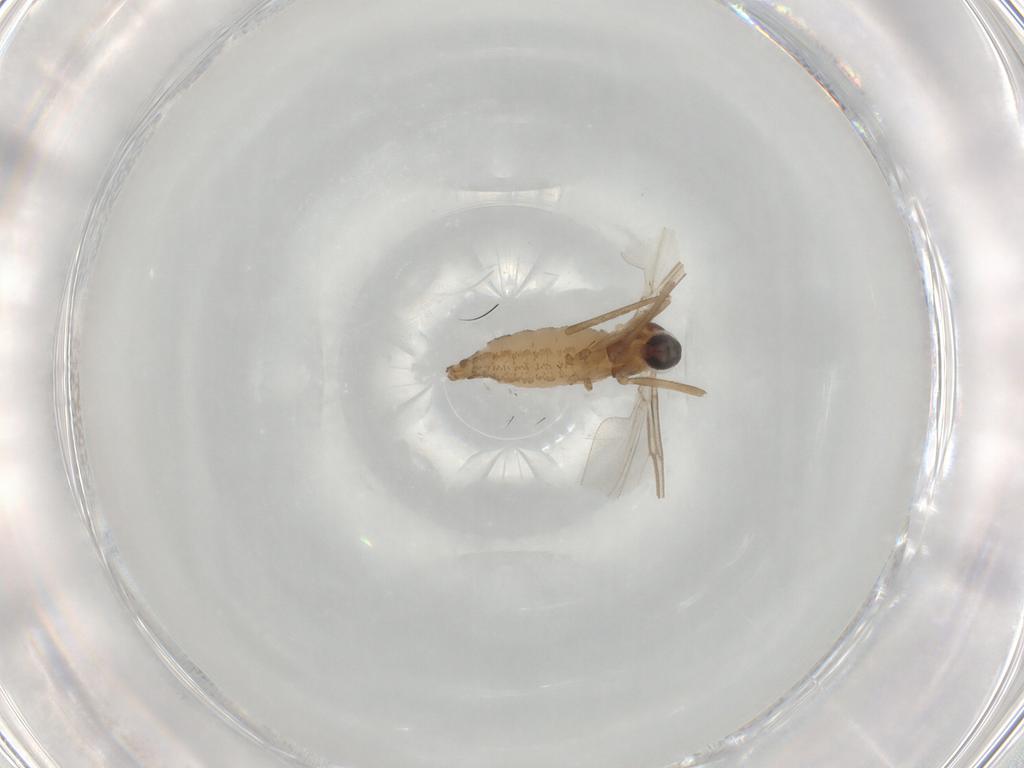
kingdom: Animalia
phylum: Arthropoda
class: Insecta
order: Diptera
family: Cecidomyiidae
